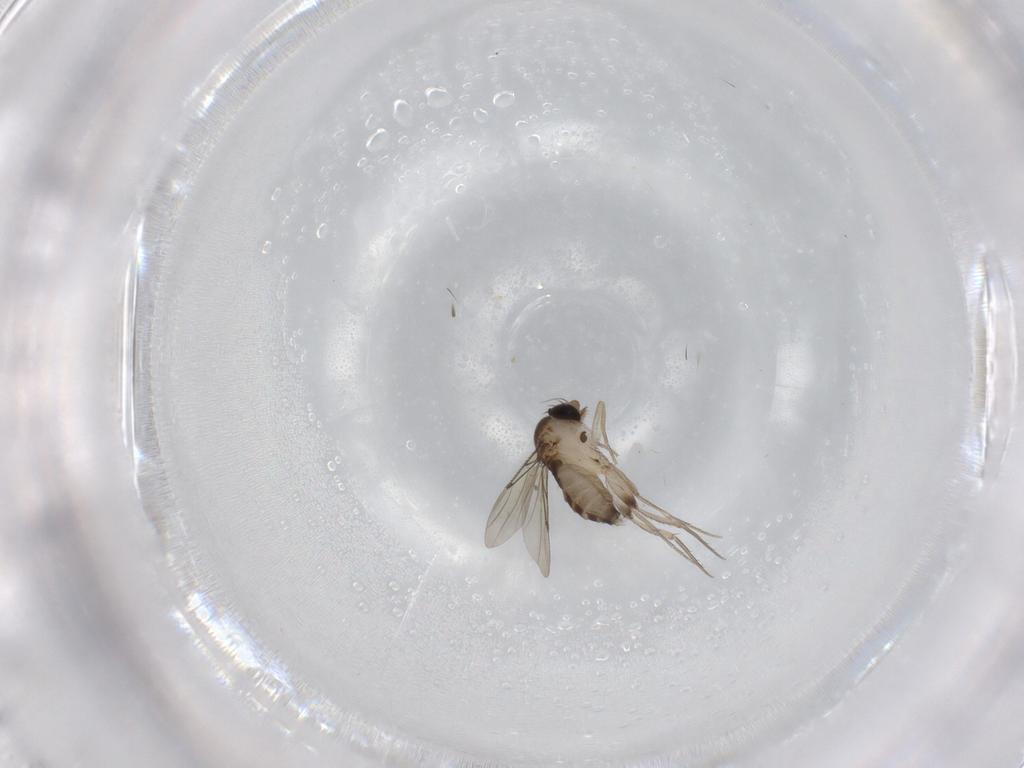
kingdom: Animalia
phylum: Arthropoda
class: Insecta
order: Diptera
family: Phoridae
